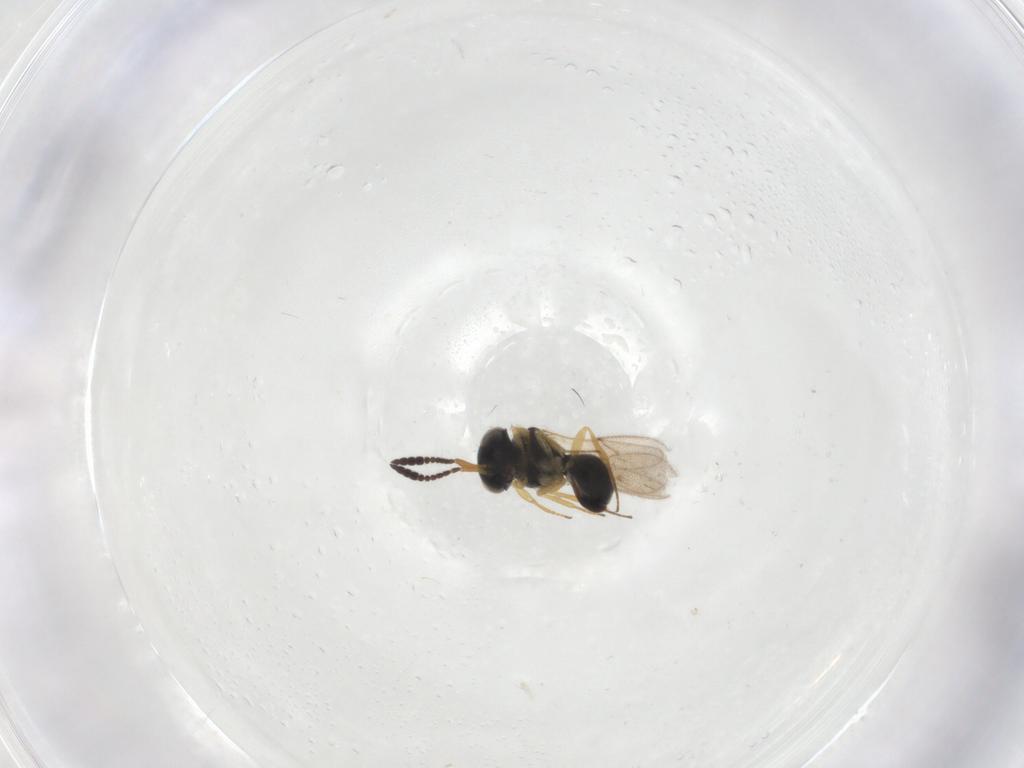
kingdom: Animalia
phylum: Arthropoda
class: Insecta
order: Hymenoptera
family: Scelionidae
